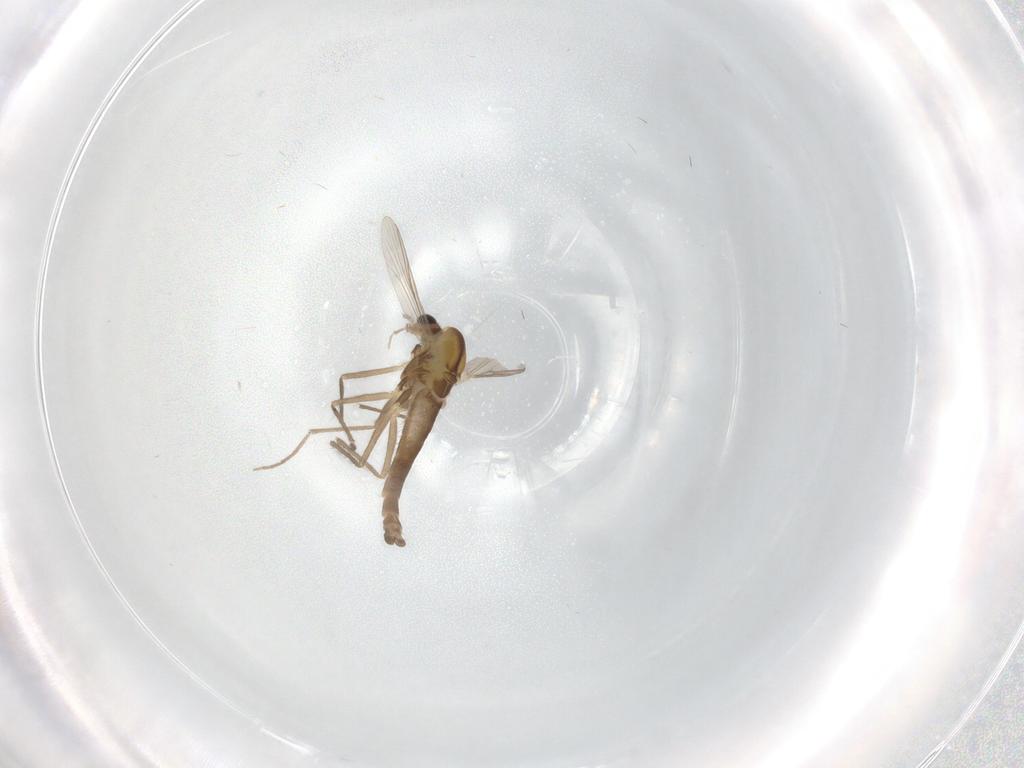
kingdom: Animalia
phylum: Arthropoda
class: Insecta
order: Diptera
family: Chironomidae
